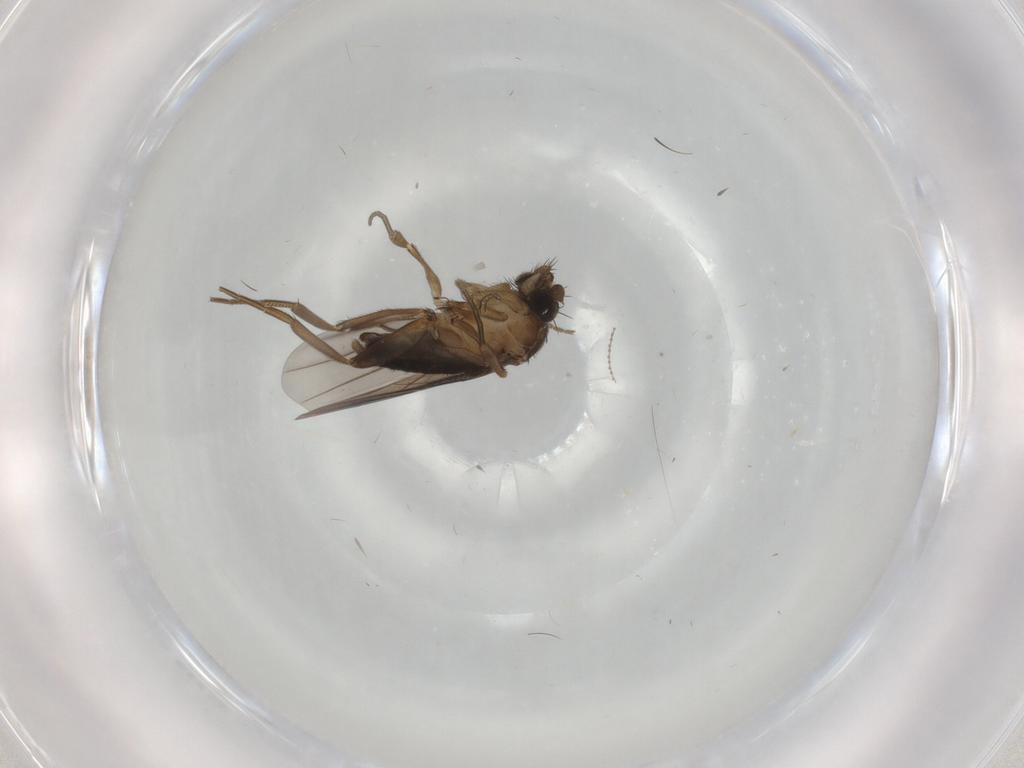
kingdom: Animalia
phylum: Arthropoda
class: Insecta
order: Diptera
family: Cecidomyiidae
